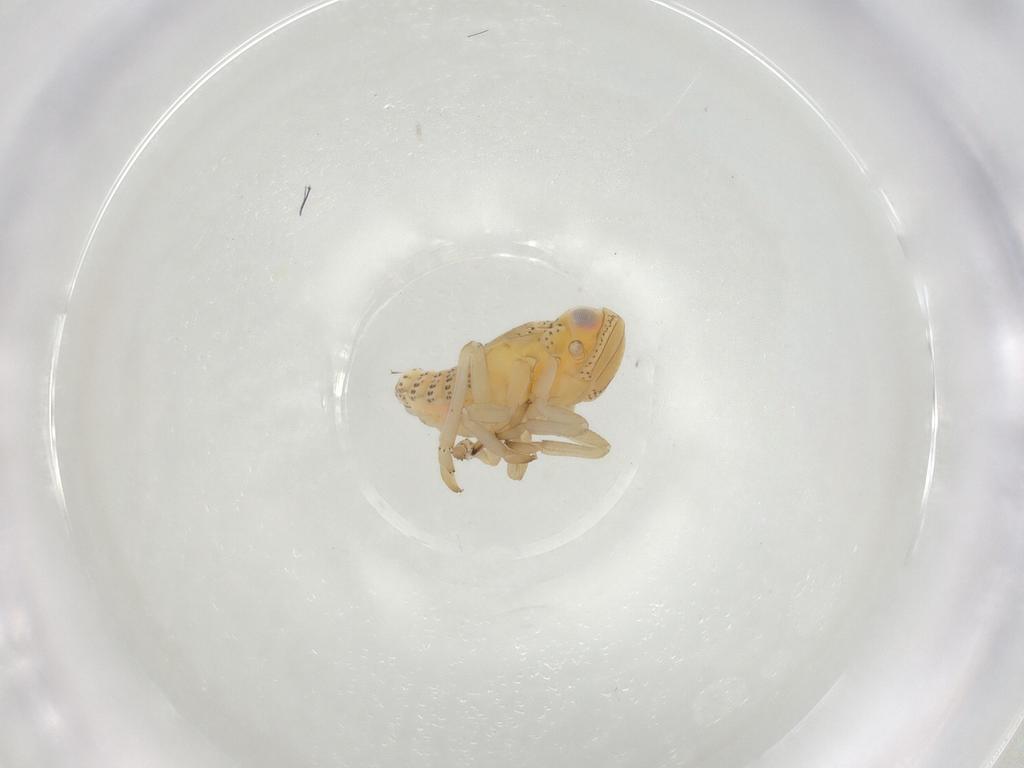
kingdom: Animalia
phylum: Arthropoda
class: Insecta
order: Hemiptera
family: Tropiduchidae
